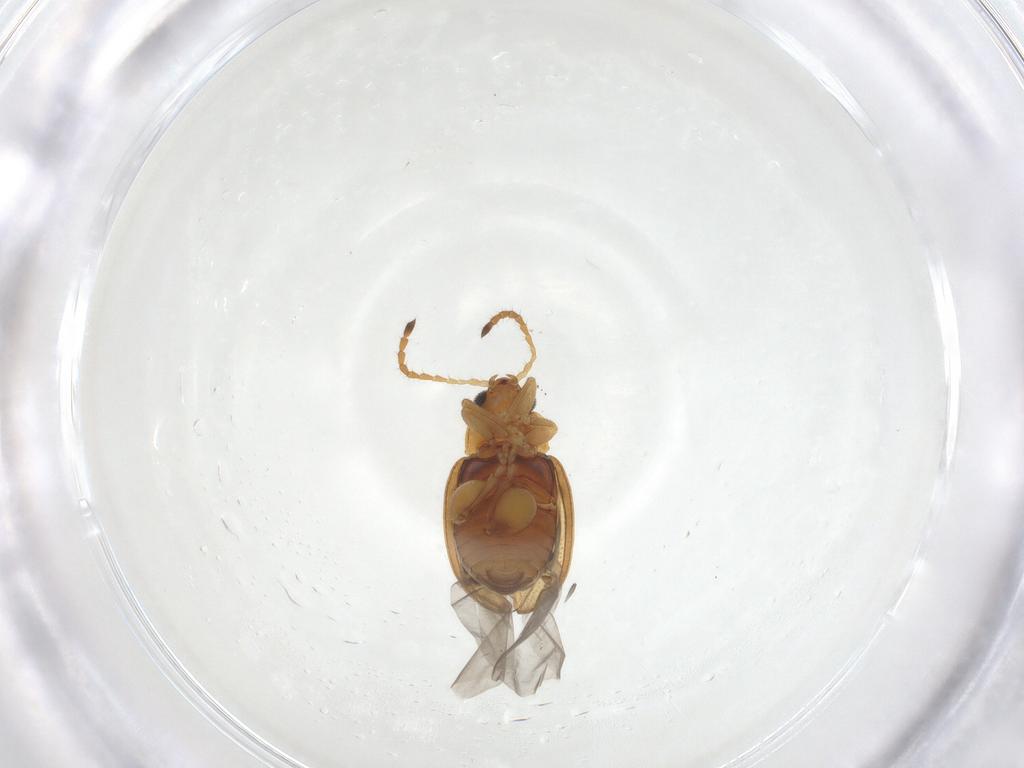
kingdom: Animalia
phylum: Arthropoda
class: Insecta
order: Coleoptera
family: Chrysomelidae
